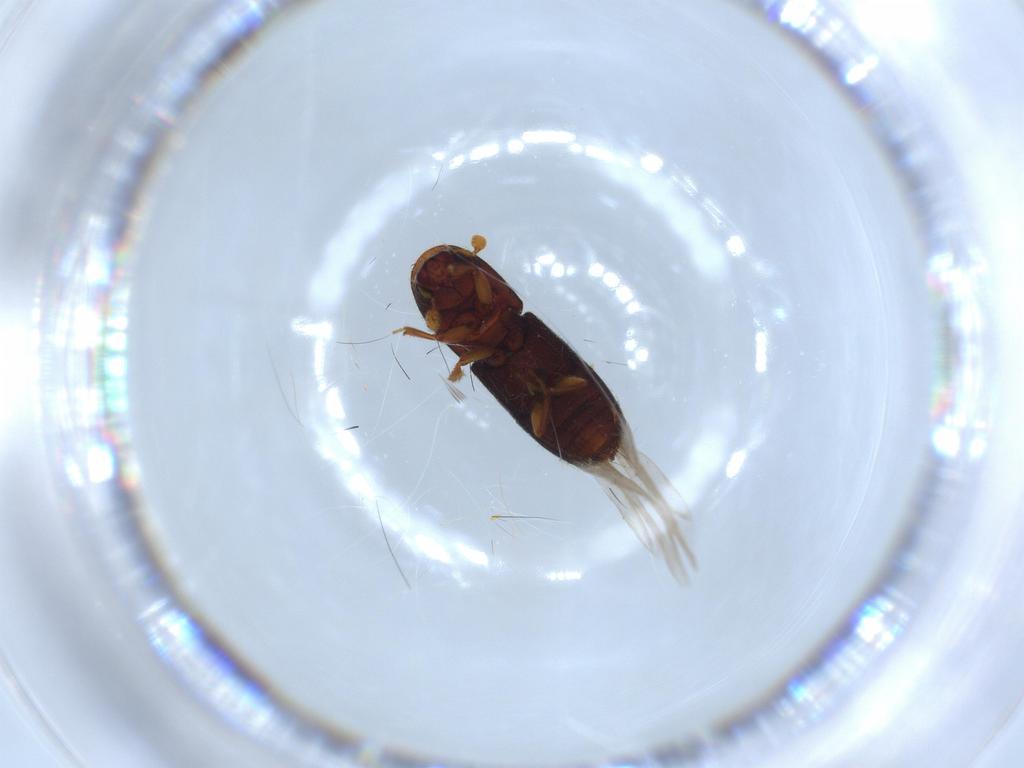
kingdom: Animalia
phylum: Arthropoda
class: Insecta
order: Coleoptera
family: Curculionidae
